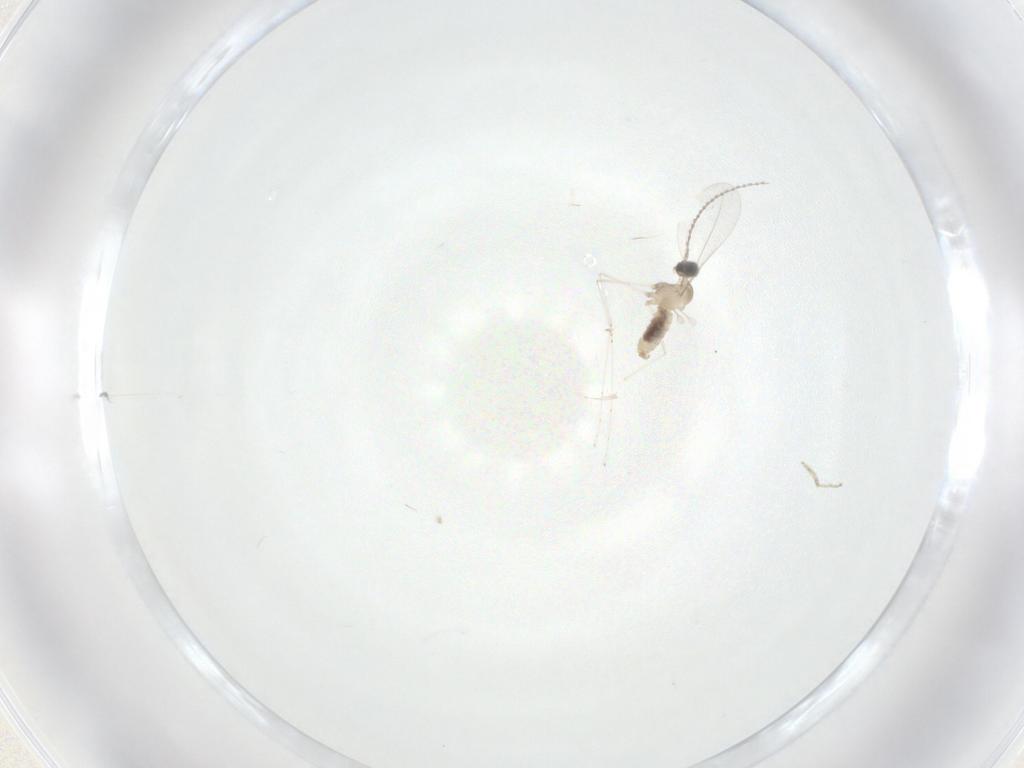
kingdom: Animalia
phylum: Arthropoda
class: Insecta
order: Diptera
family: Cecidomyiidae
